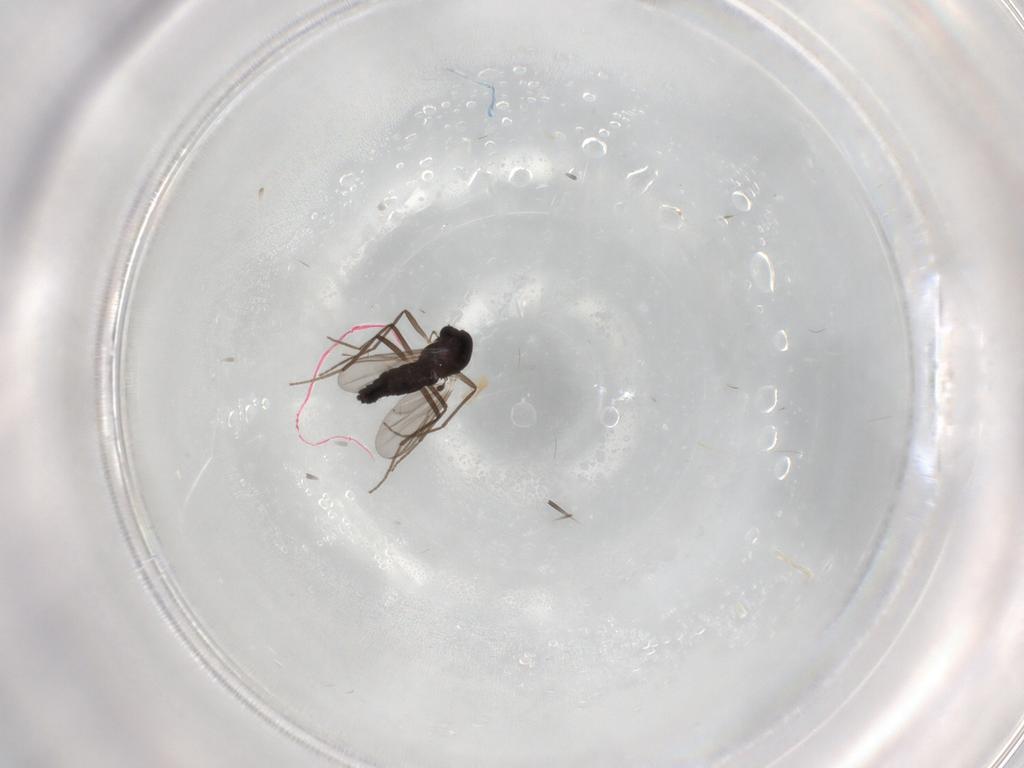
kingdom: Animalia
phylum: Arthropoda
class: Insecta
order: Diptera
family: Chironomidae
